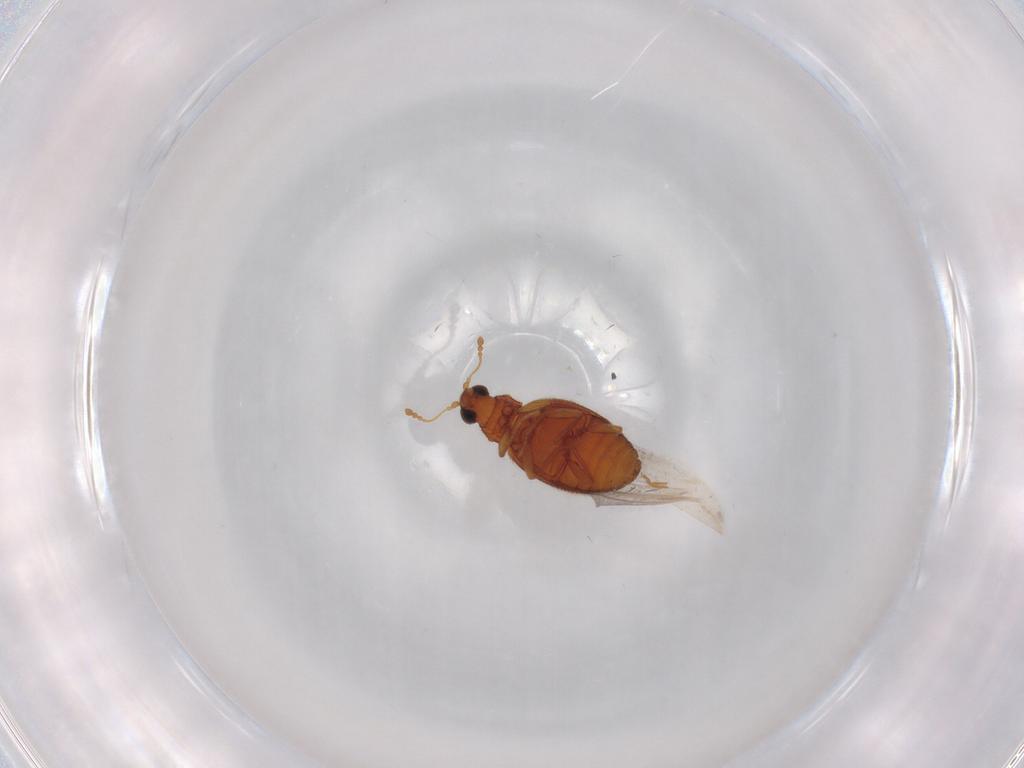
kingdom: Animalia
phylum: Arthropoda
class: Insecta
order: Coleoptera
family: Latridiidae
